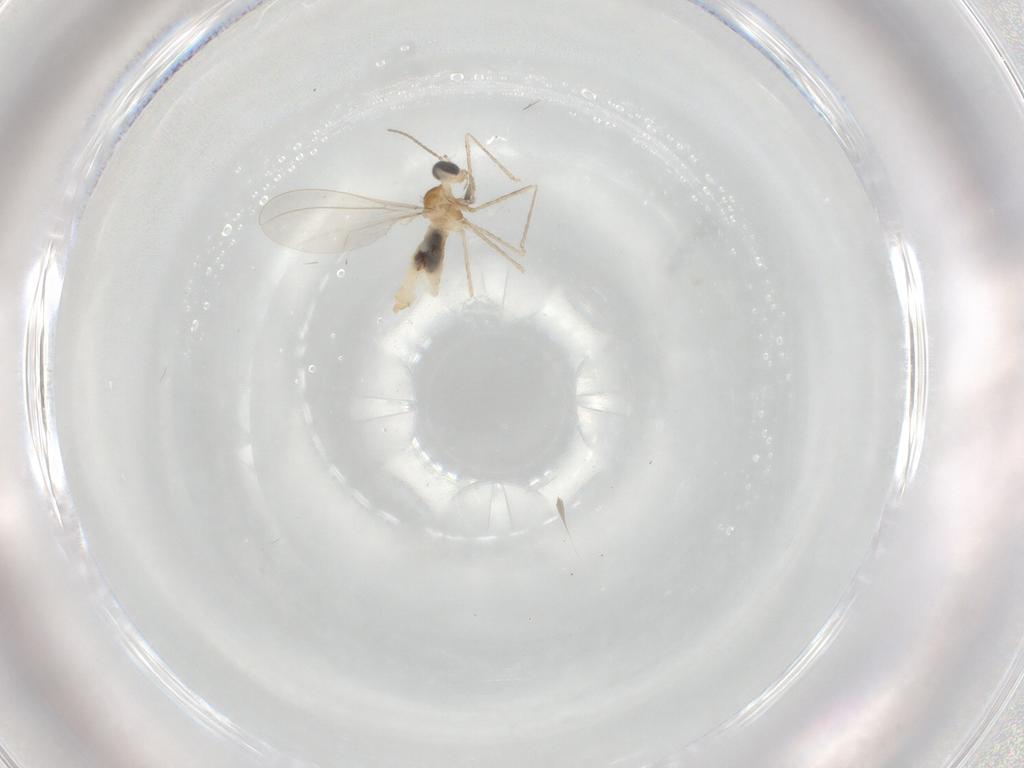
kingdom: Animalia
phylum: Arthropoda
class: Insecta
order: Diptera
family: Cecidomyiidae
